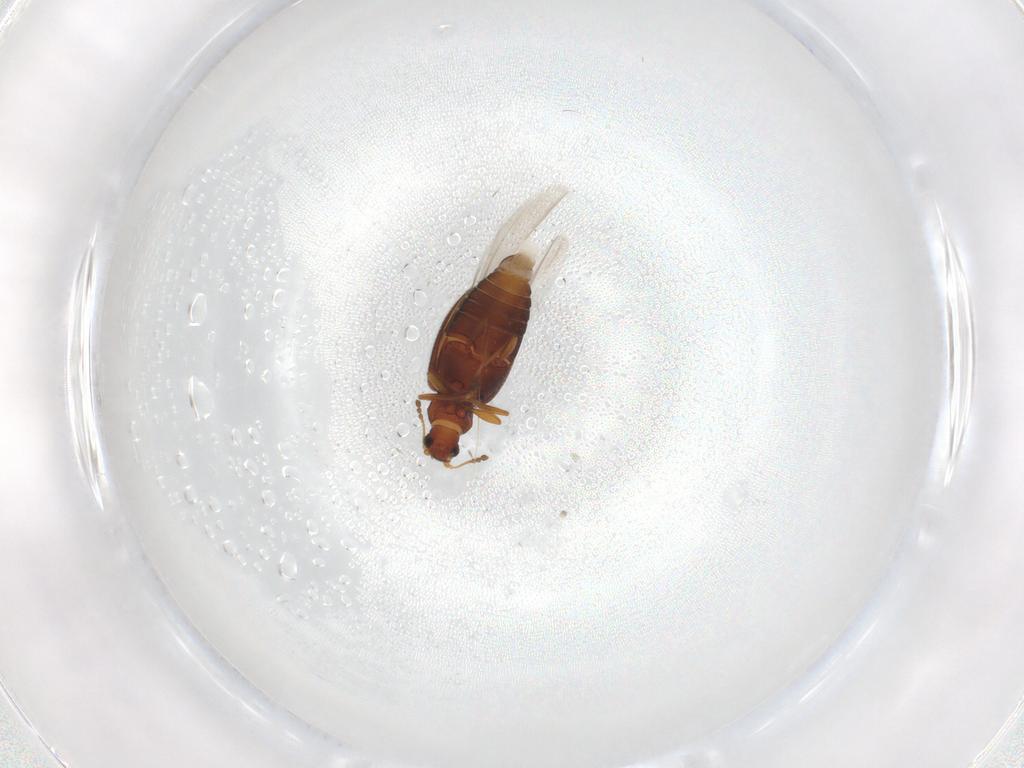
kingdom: Animalia
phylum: Arthropoda
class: Insecta
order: Coleoptera
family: Latridiidae
